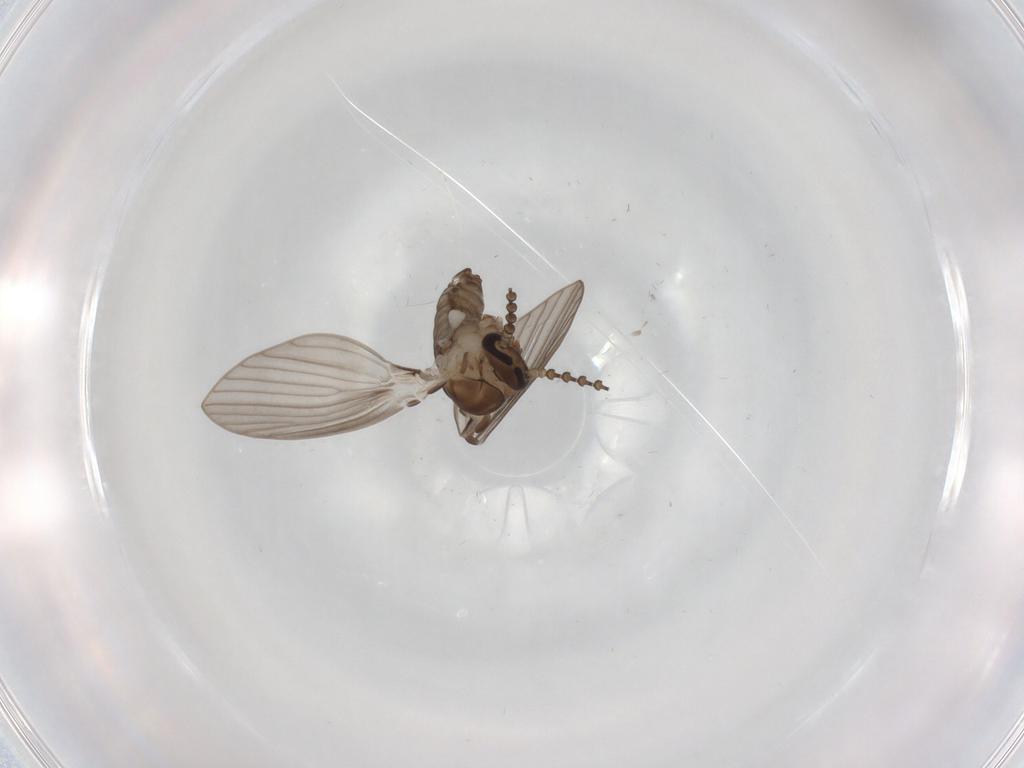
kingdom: Animalia
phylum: Arthropoda
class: Insecta
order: Diptera
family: Psychodidae
